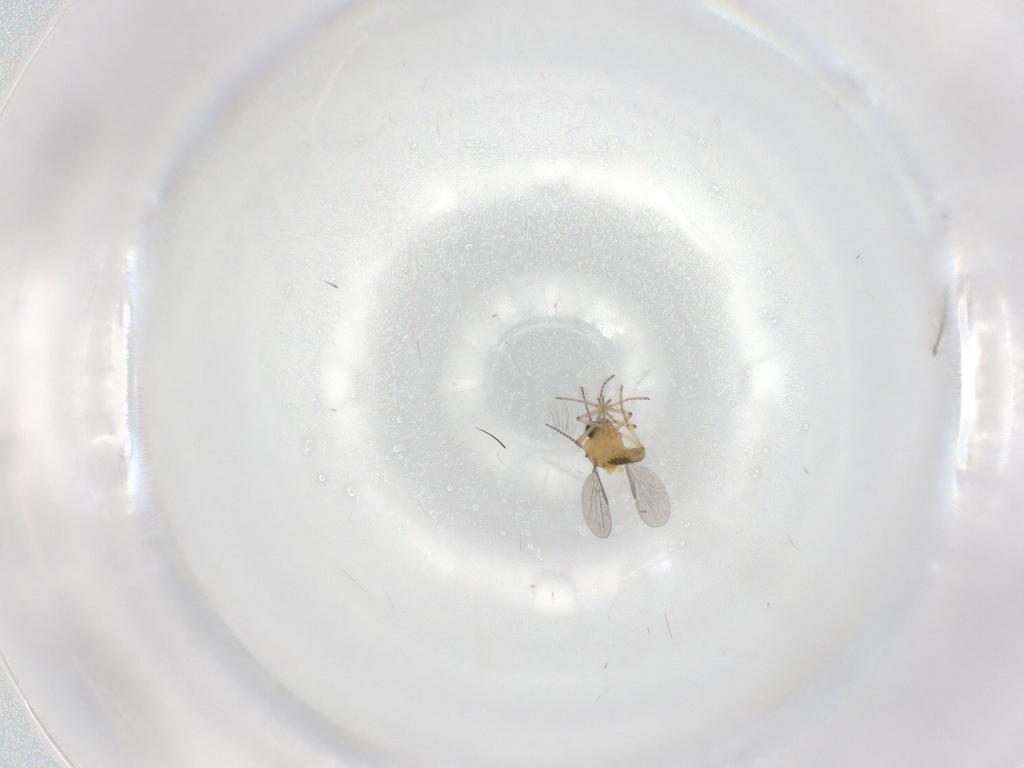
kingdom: Animalia
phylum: Arthropoda
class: Insecta
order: Diptera
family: Ceratopogonidae
